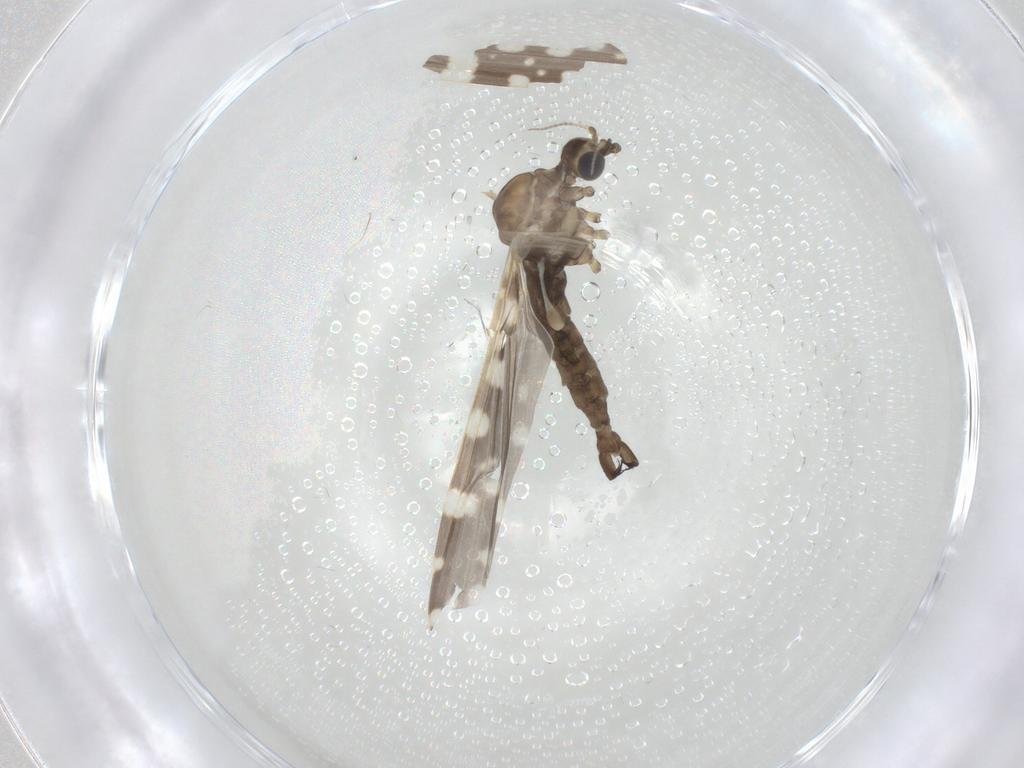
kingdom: Animalia
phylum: Arthropoda
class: Insecta
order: Diptera
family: Limoniidae
